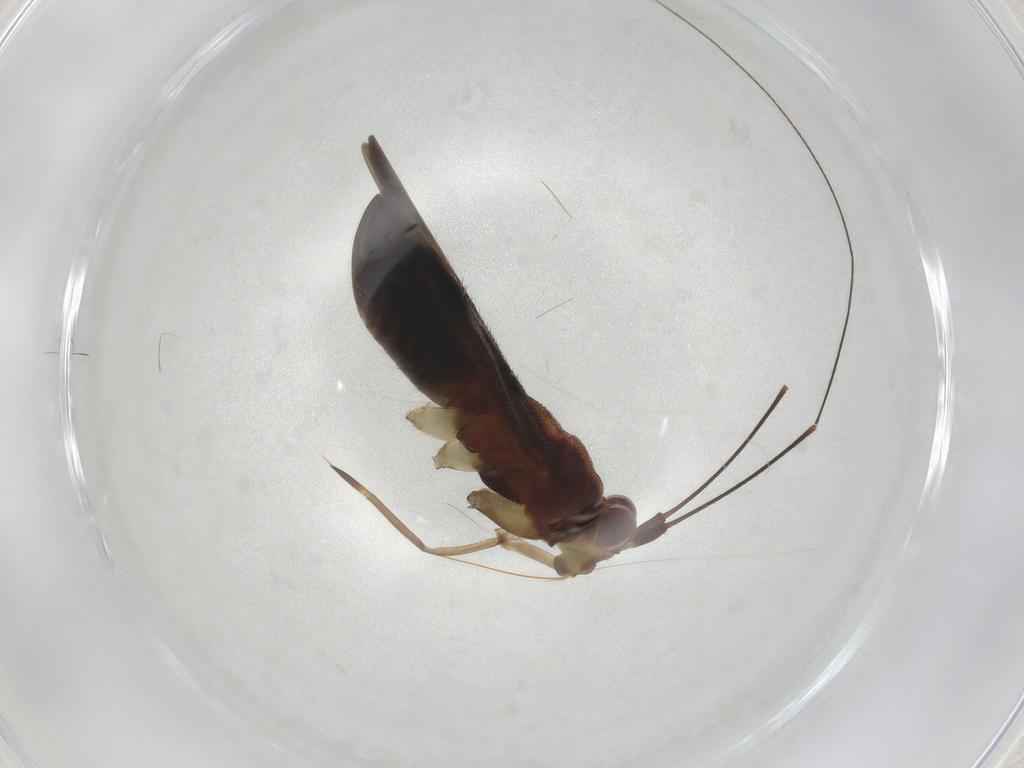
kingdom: Animalia
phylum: Arthropoda
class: Insecta
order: Hemiptera
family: Miridae
